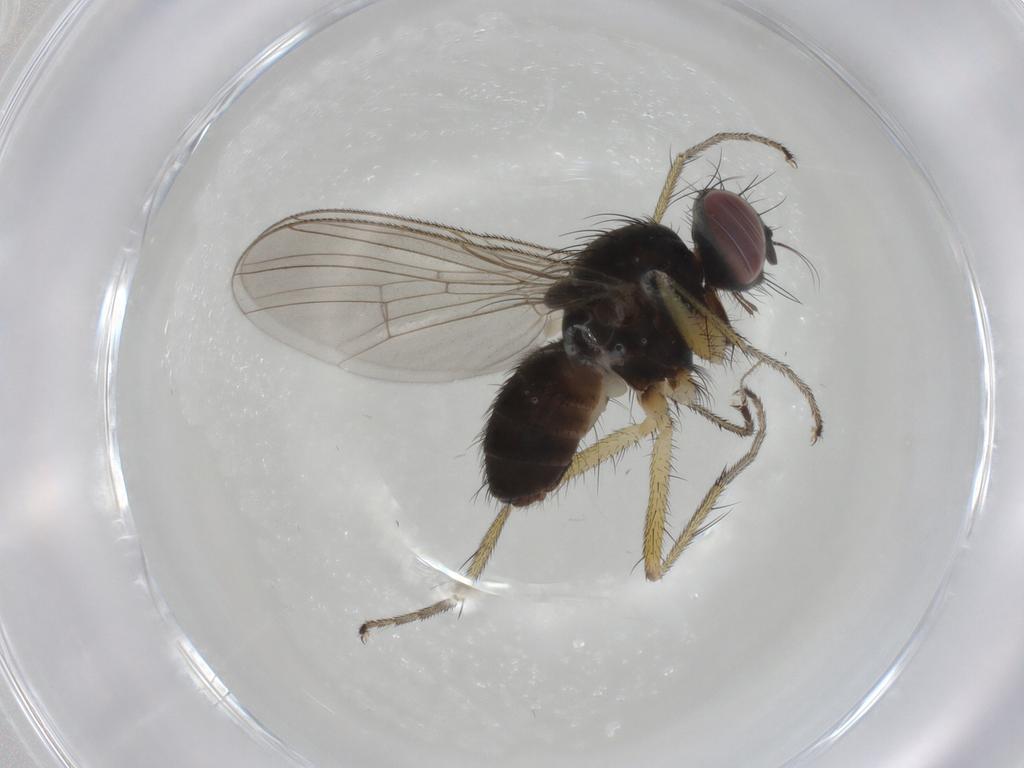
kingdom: Animalia
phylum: Arthropoda
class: Insecta
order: Diptera
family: Muscidae
